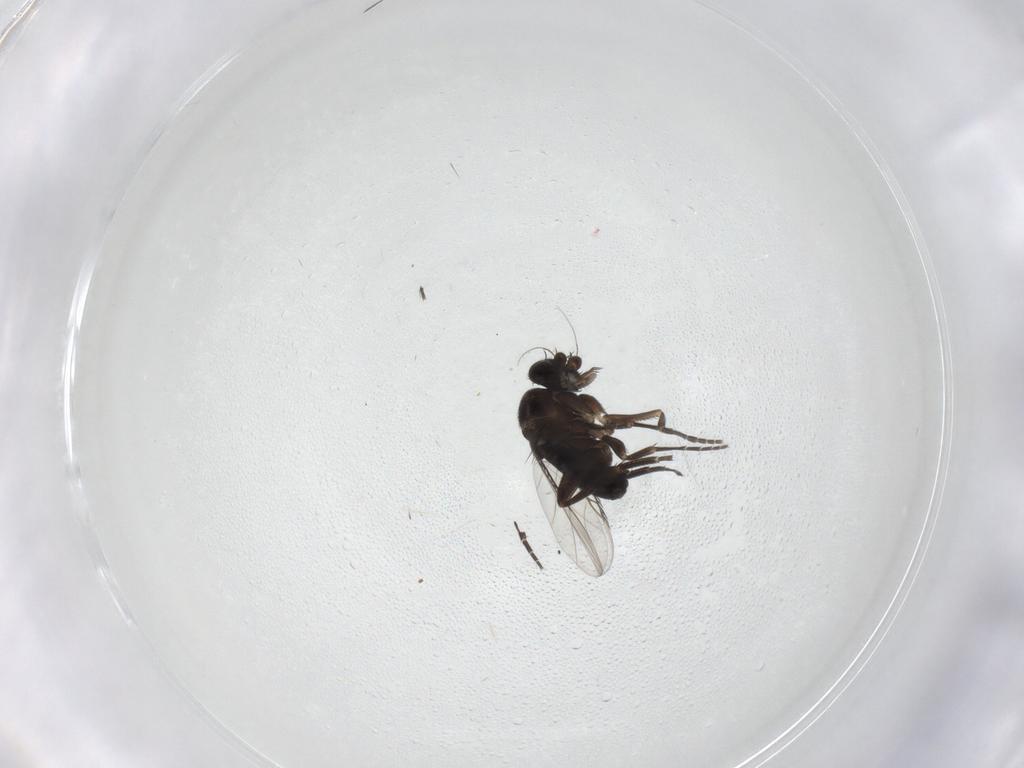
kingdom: Animalia
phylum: Arthropoda
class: Insecta
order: Diptera
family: Phoridae
